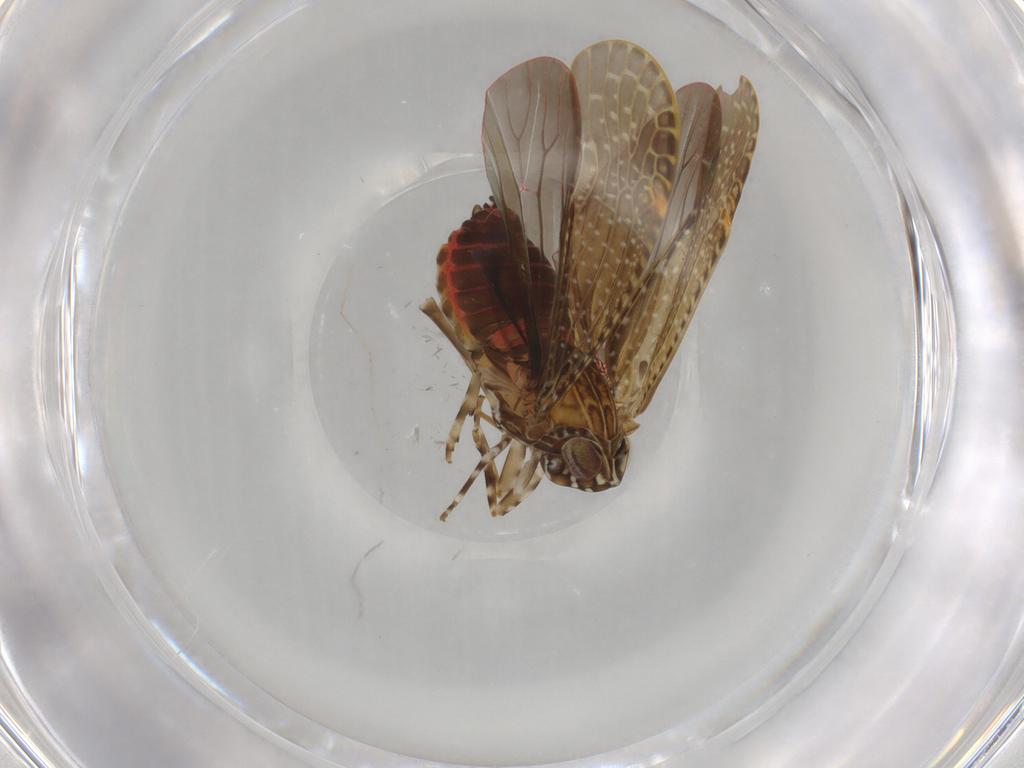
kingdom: Animalia
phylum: Arthropoda
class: Insecta
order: Hemiptera
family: Achilidae
